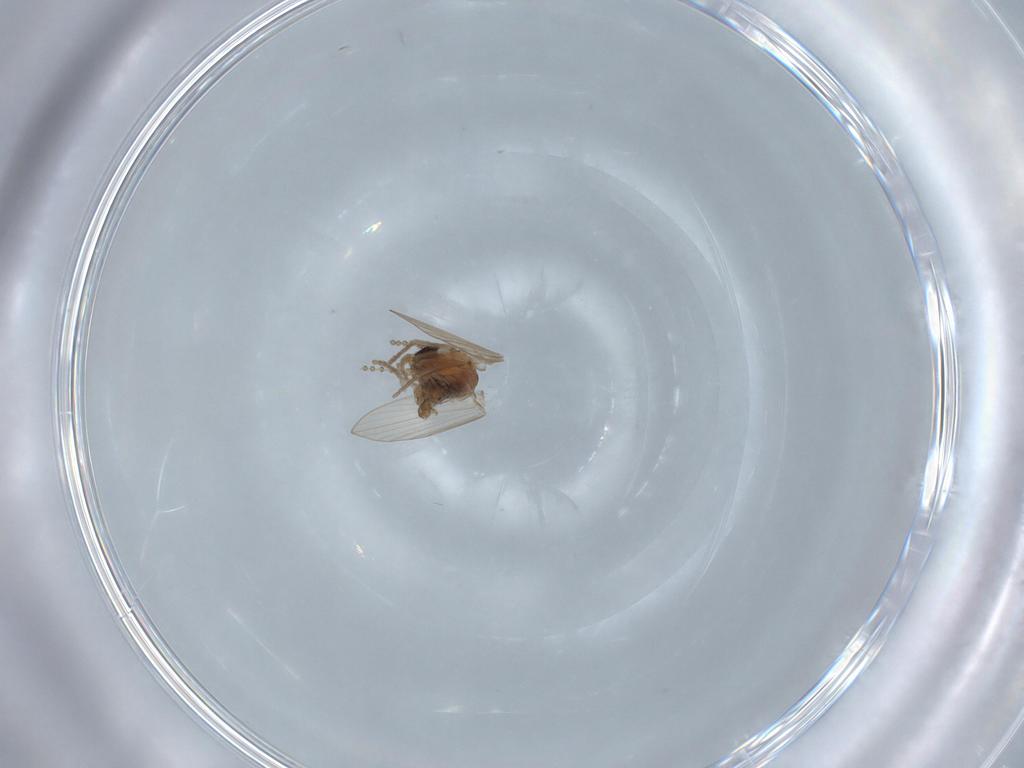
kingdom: Animalia
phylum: Arthropoda
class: Insecta
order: Diptera
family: Psychodidae
